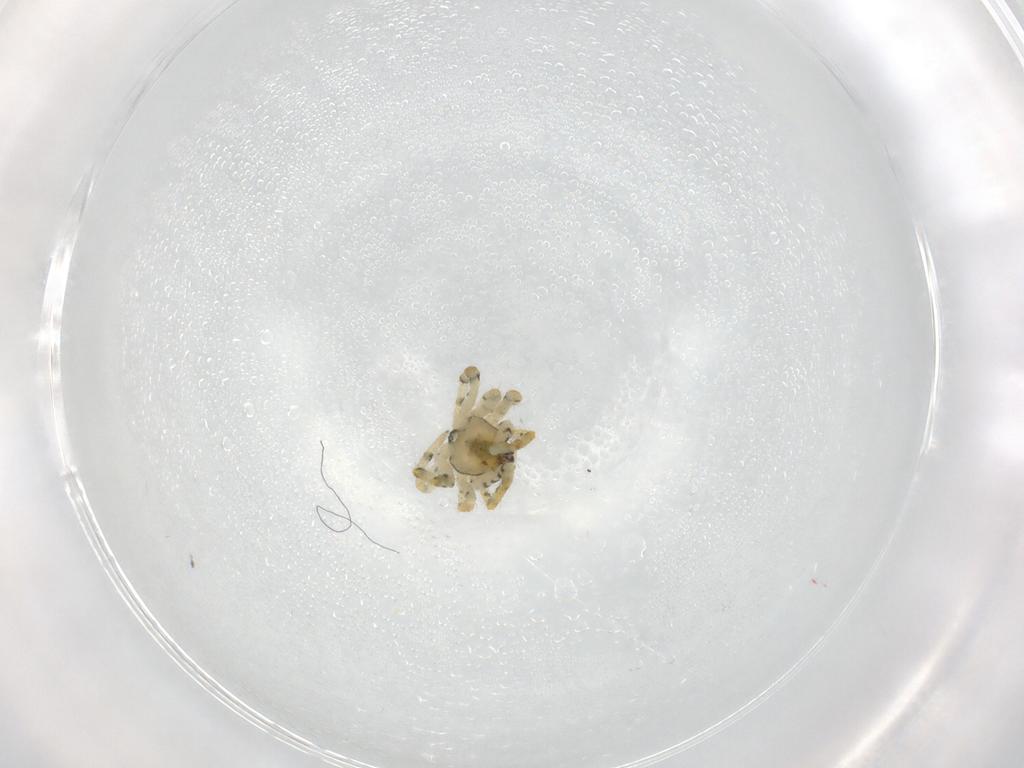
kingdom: Animalia
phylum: Arthropoda
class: Arachnida
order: Araneae
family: Theridiidae
